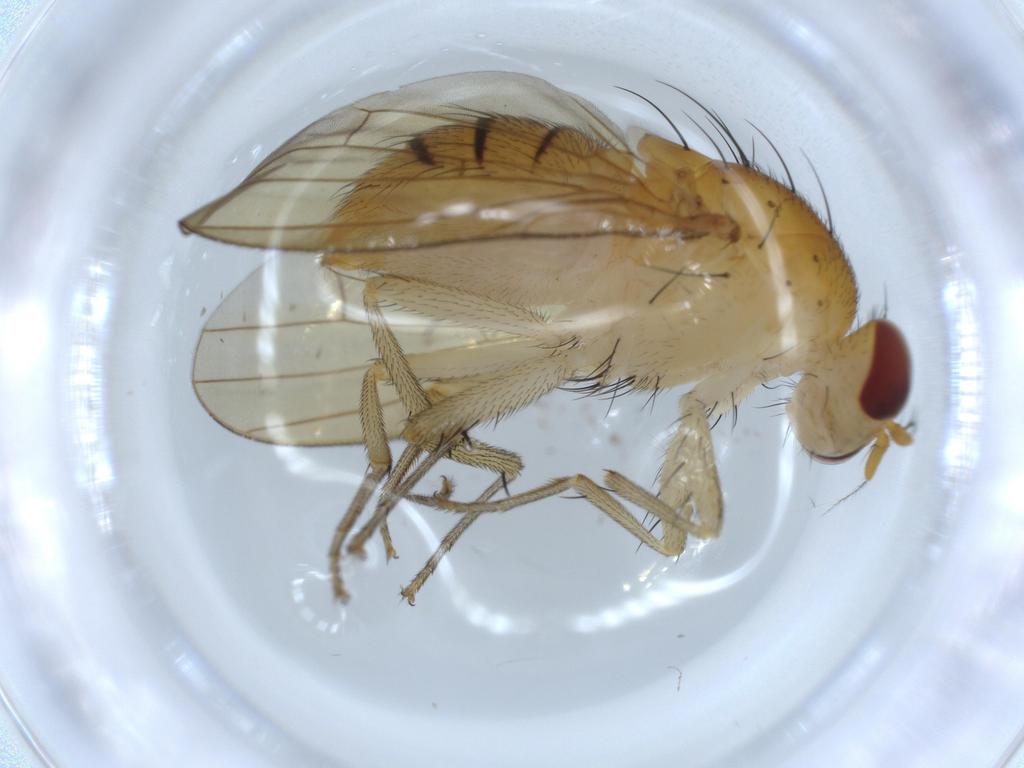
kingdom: Animalia
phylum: Arthropoda
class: Insecta
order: Diptera
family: Lauxaniidae
